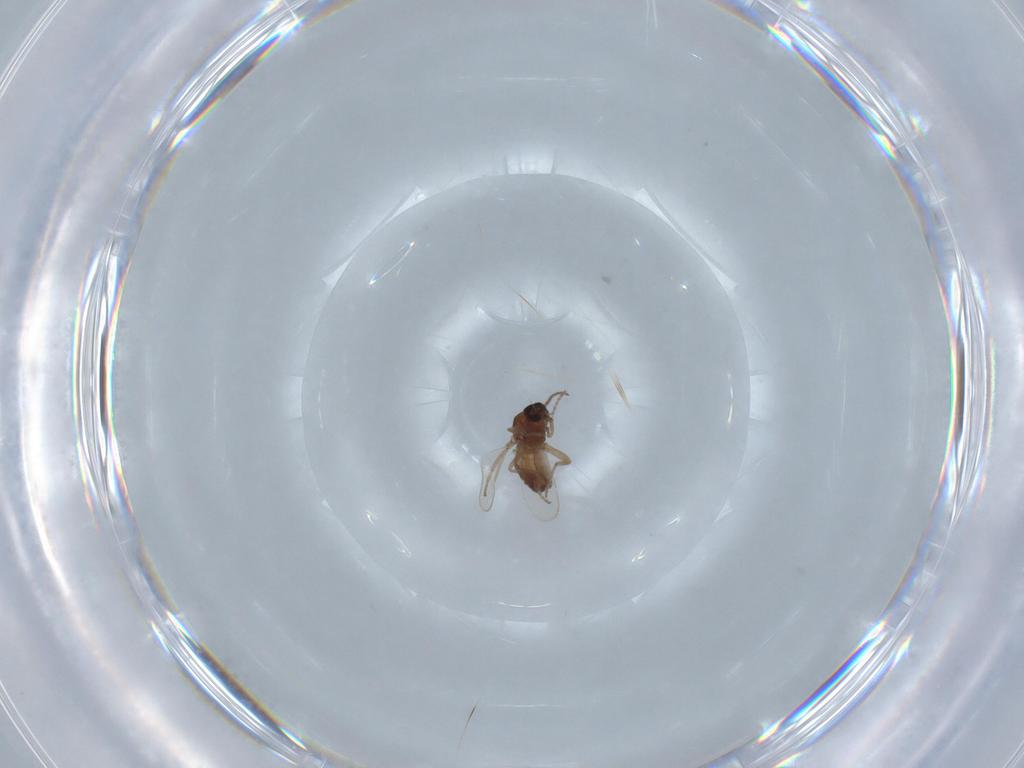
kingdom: Animalia
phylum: Arthropoda
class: Insecta
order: Diptera
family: Ceratopogonidae
